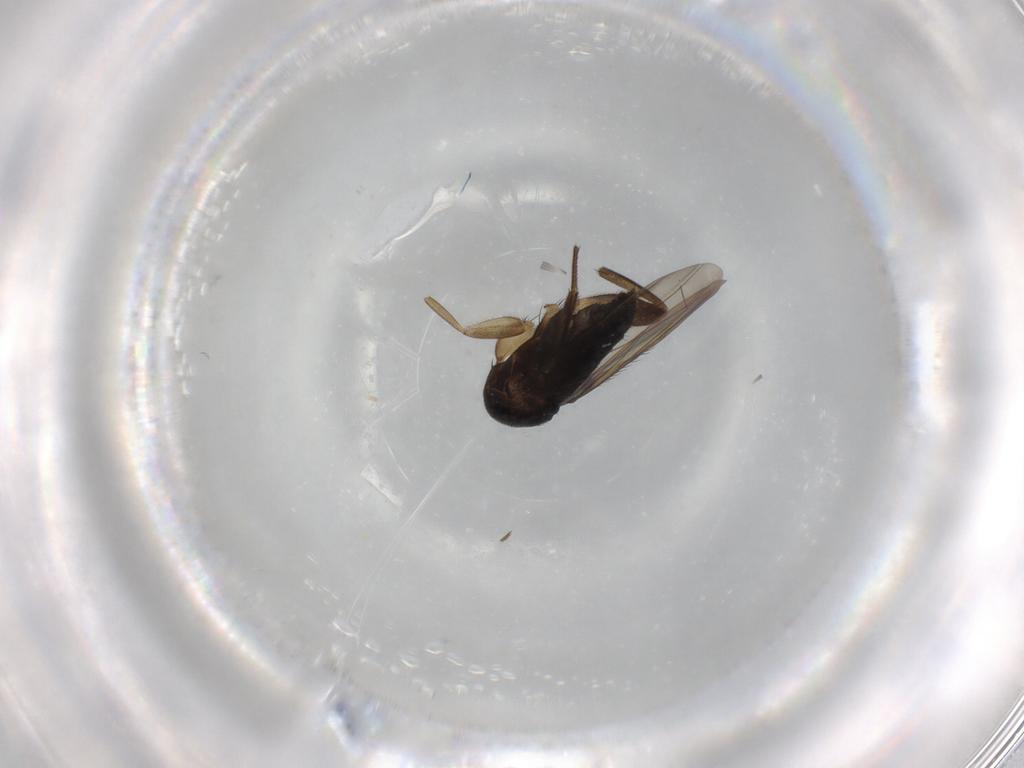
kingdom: Animalia
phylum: Arthropoda
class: Insecta
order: Diptera
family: Phoridae
